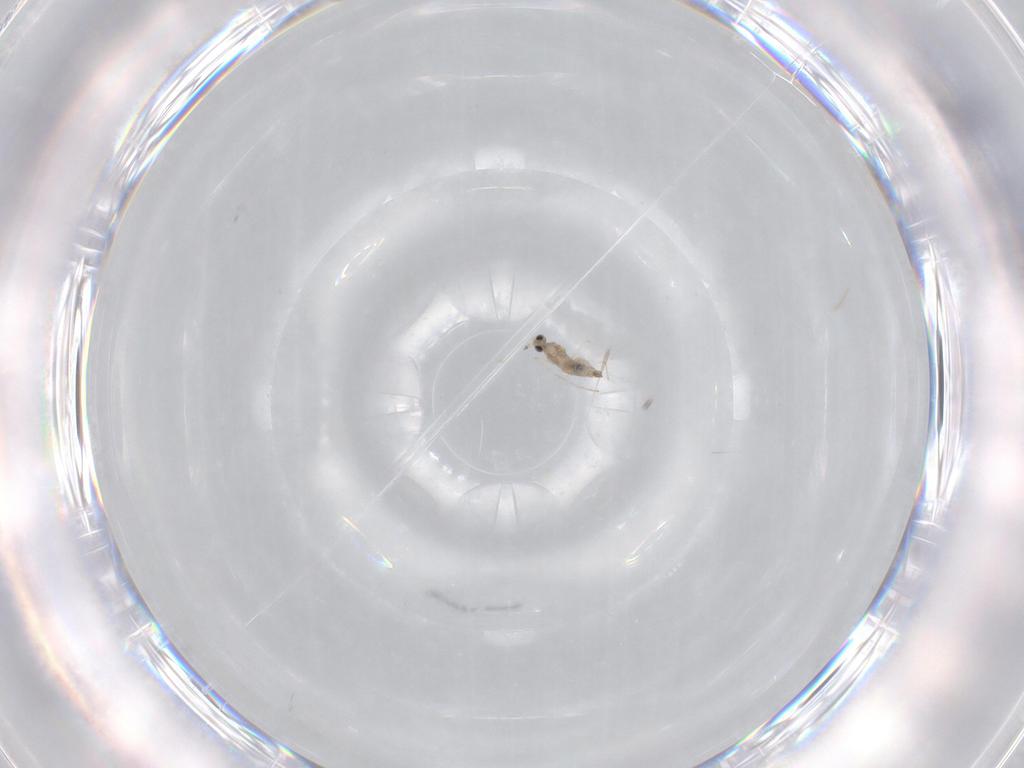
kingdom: Animalia
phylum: Arthropoda
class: Insecta
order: Diptera
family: Cecidomyiidae
